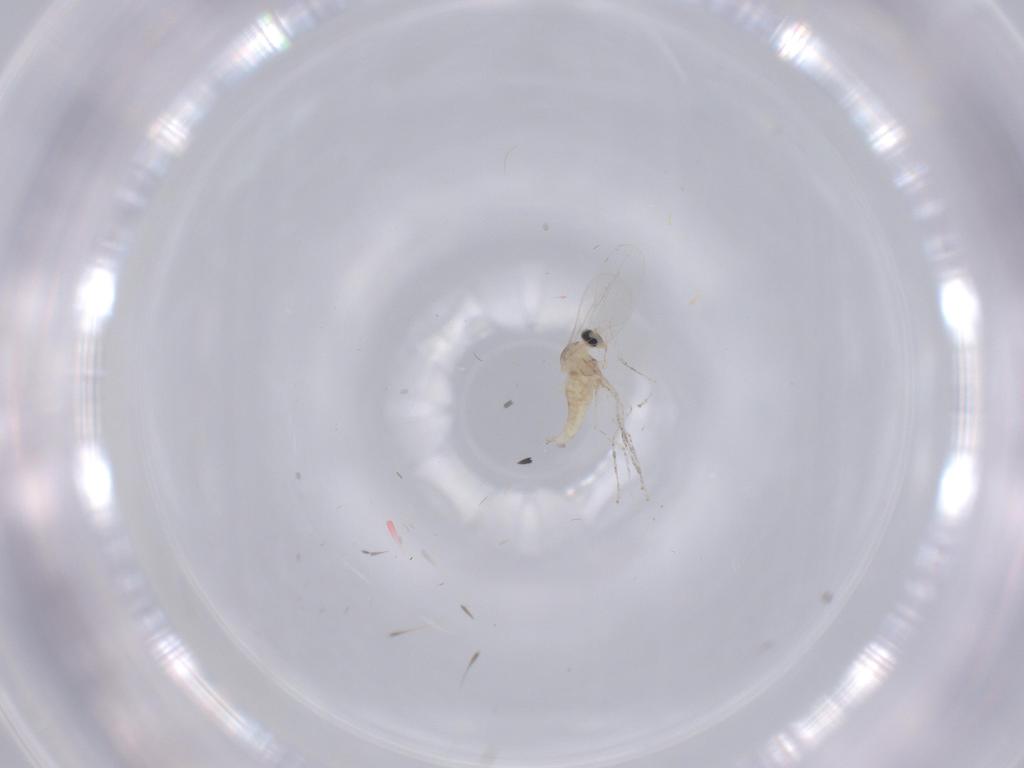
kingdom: Animalia
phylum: Arthropoda
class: Insecta
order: Diptera
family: Cecidomyiidae
